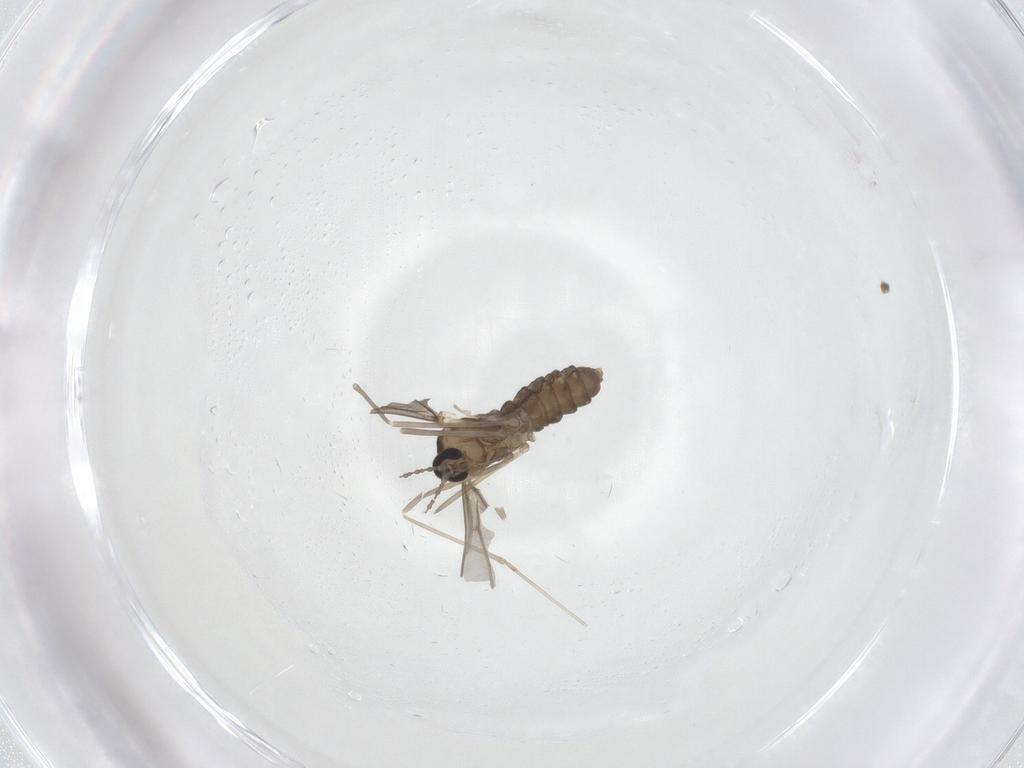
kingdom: Animalia
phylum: Arthropoda
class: Insecta
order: Diptera
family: Cecidomyiidae
